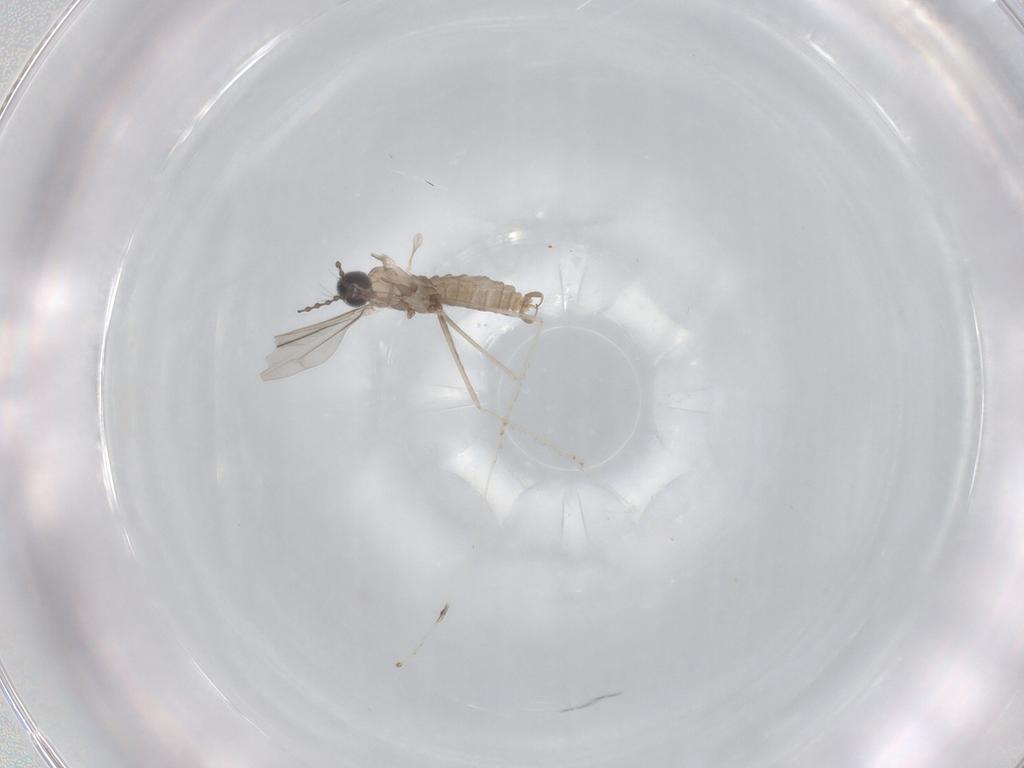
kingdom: Animalia
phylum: Arthropoda
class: Insecta
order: Diptera
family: Cecidomyiidae
